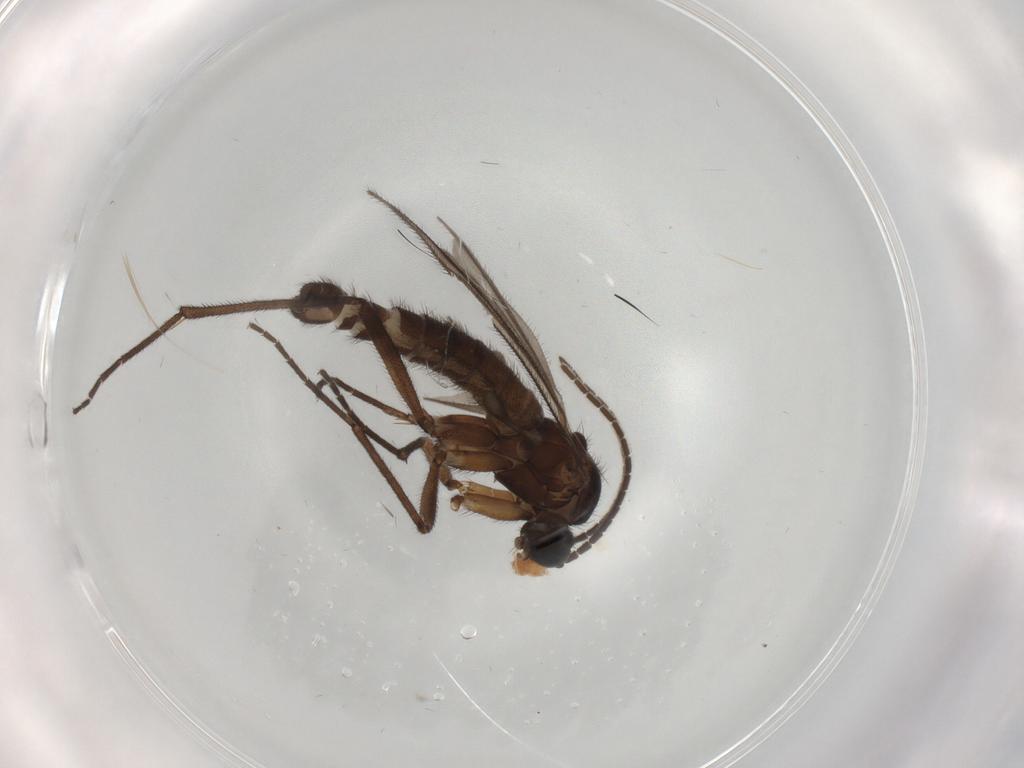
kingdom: Animalia
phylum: Arthropoda
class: Insecta
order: Diptera
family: Sciaridae
